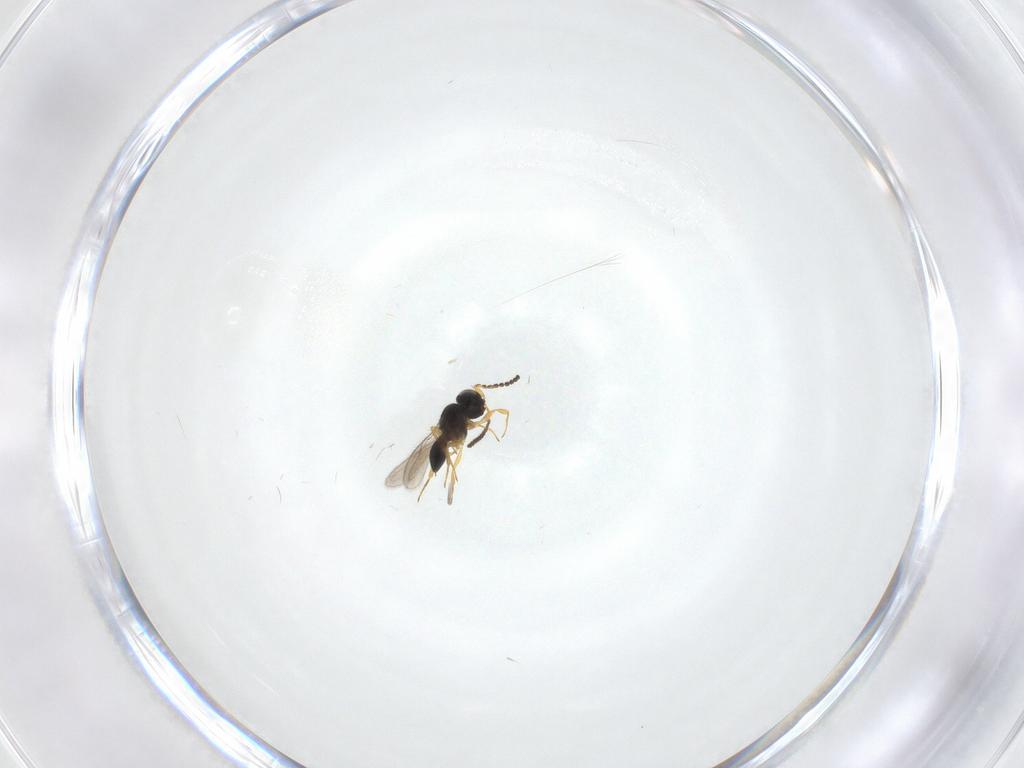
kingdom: Animalia
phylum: Arthropoda
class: Insecta
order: Hymenoptera
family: Scelionidae
